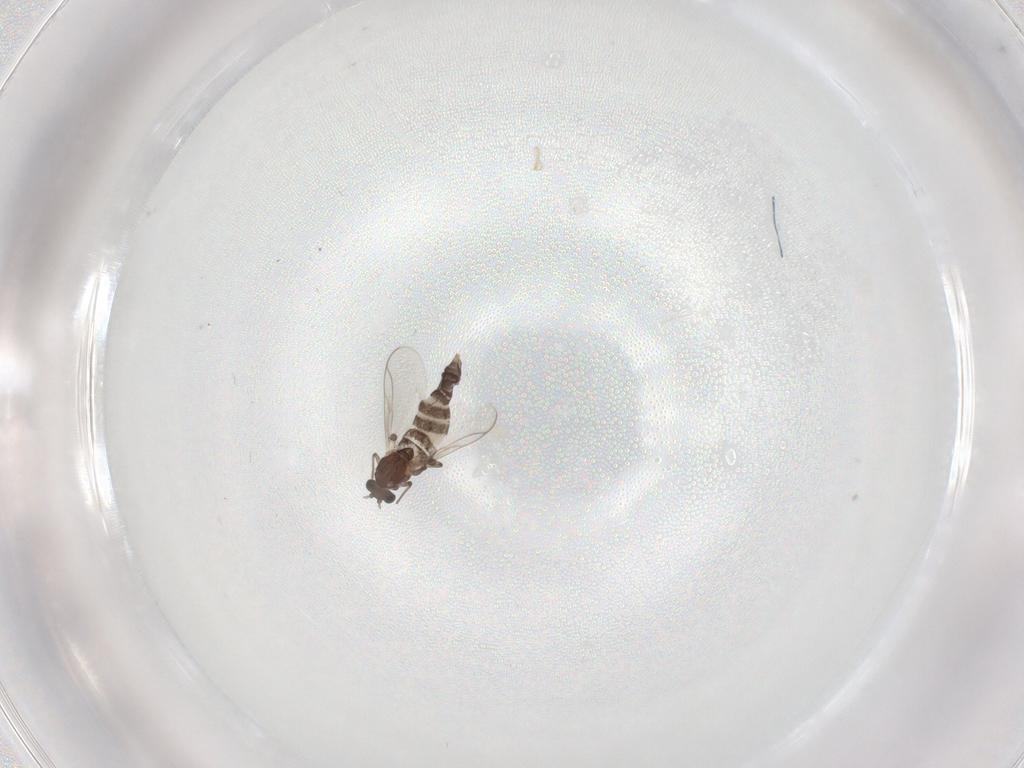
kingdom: Animalia
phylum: Arthropoda
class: Insecta
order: Diptera
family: Chironomidae
